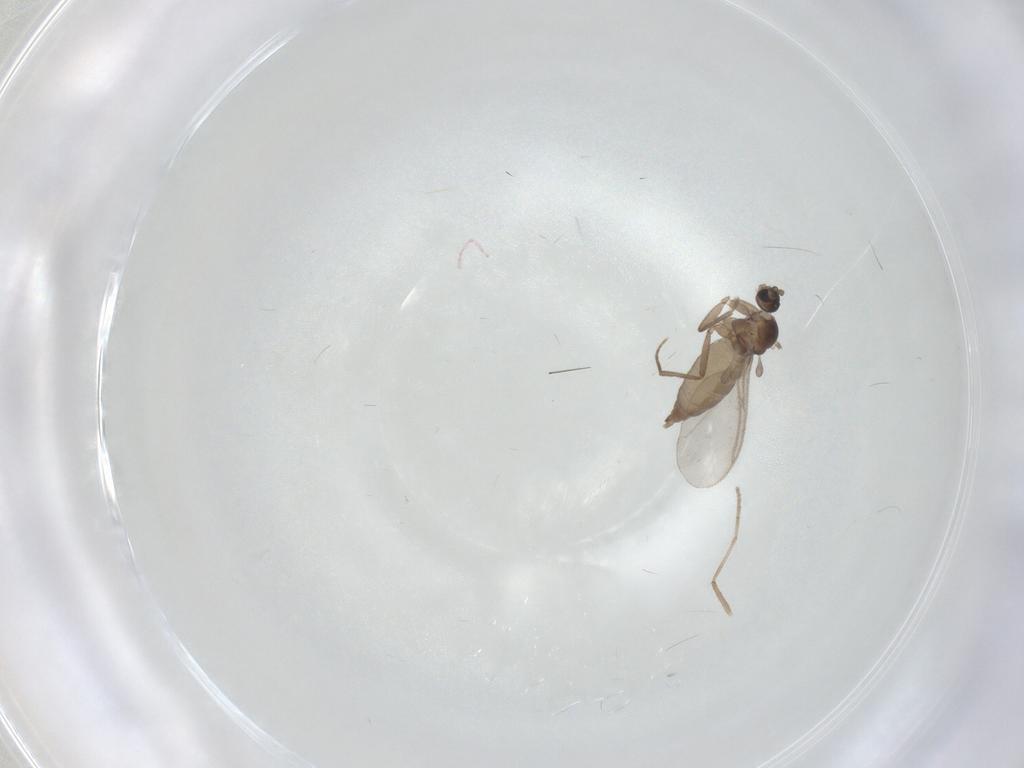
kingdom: Animalia
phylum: Arthropoda
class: Insecta
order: Diptera
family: Chironomidae
